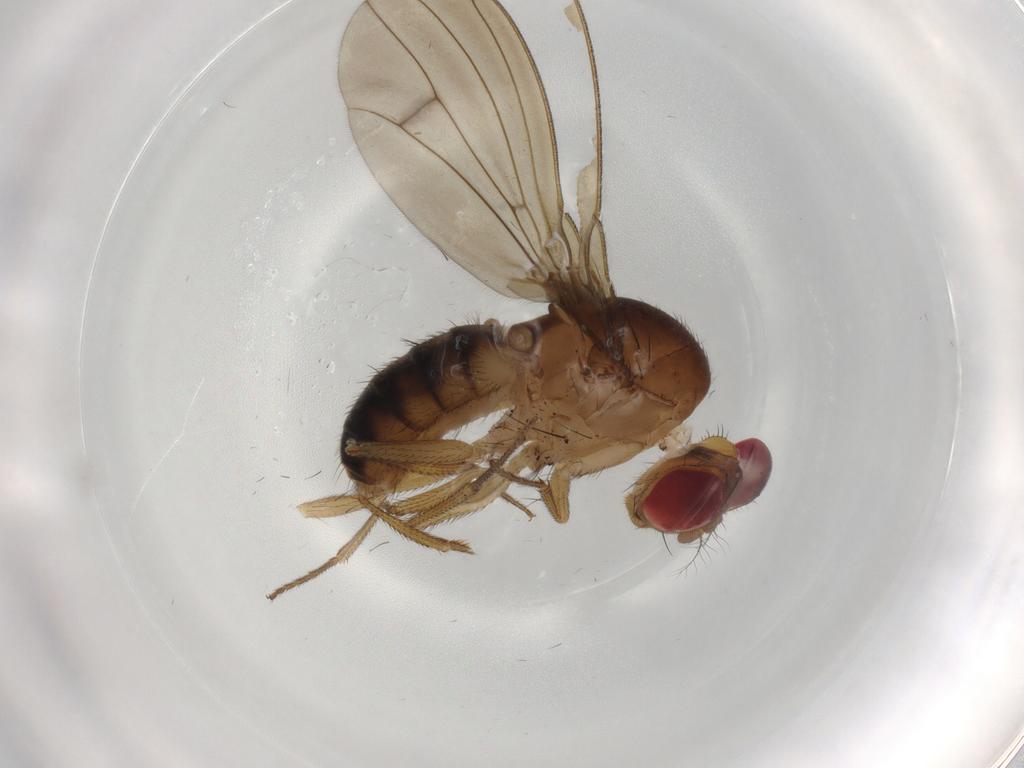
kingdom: Animalia
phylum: Arthropoda
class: Insecta
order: Diptera
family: Drosophilidae
